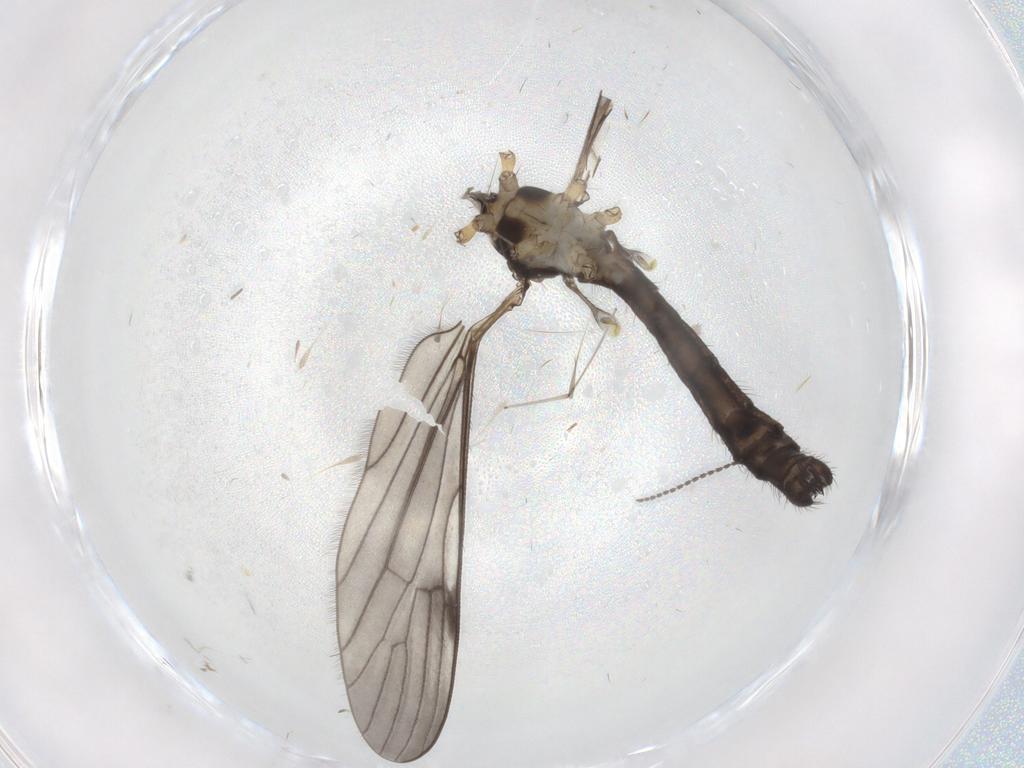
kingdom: Animalia
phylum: Arthropoda
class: Insecta
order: Diptera
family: Limoniidae
